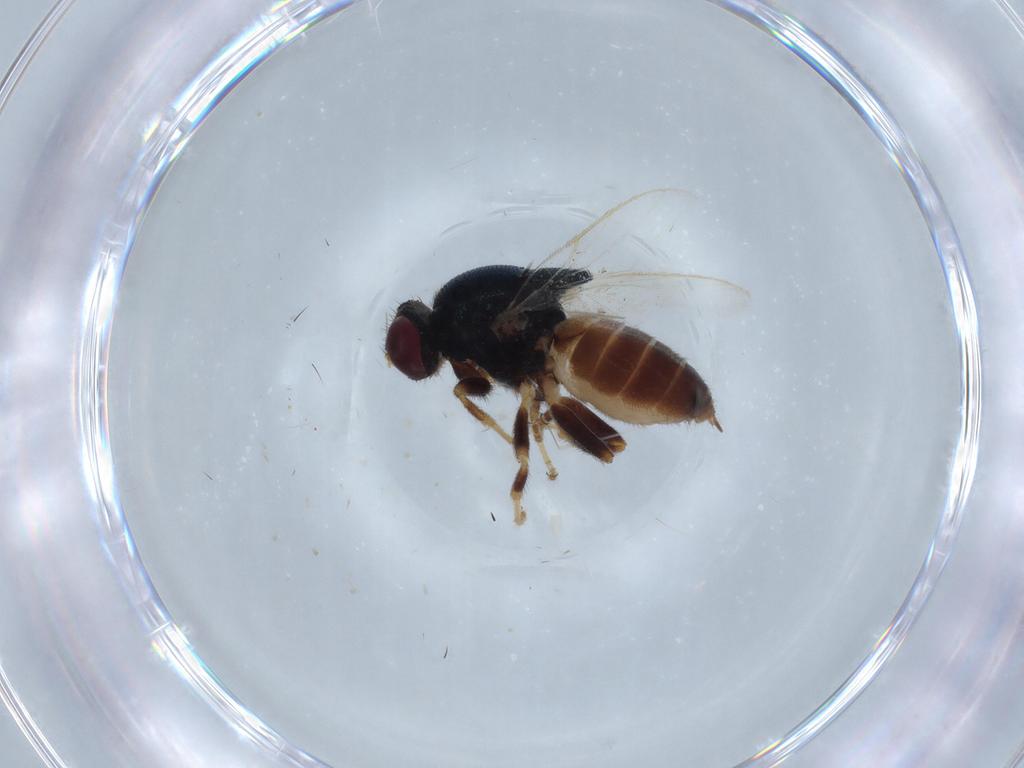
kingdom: Animalia
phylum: Arthropoda
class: Insecta
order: Diptera
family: Chloropidae
